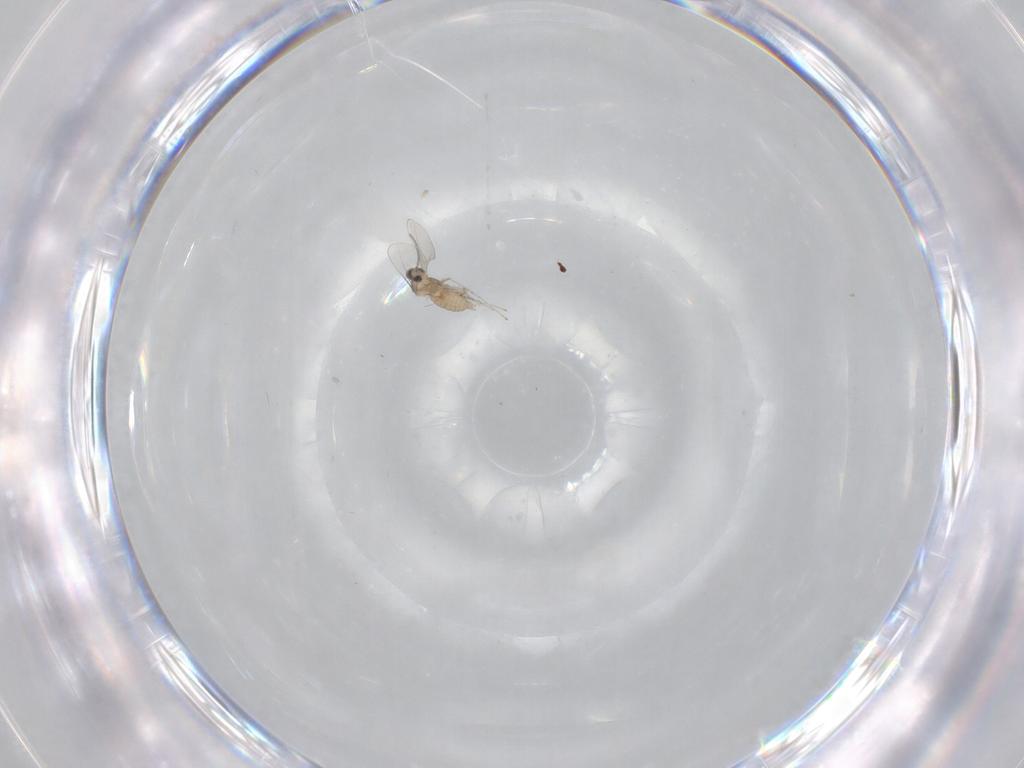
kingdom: Animalia
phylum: Arthropoda
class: Insecta
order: Diptera
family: Cecidomyiidae
